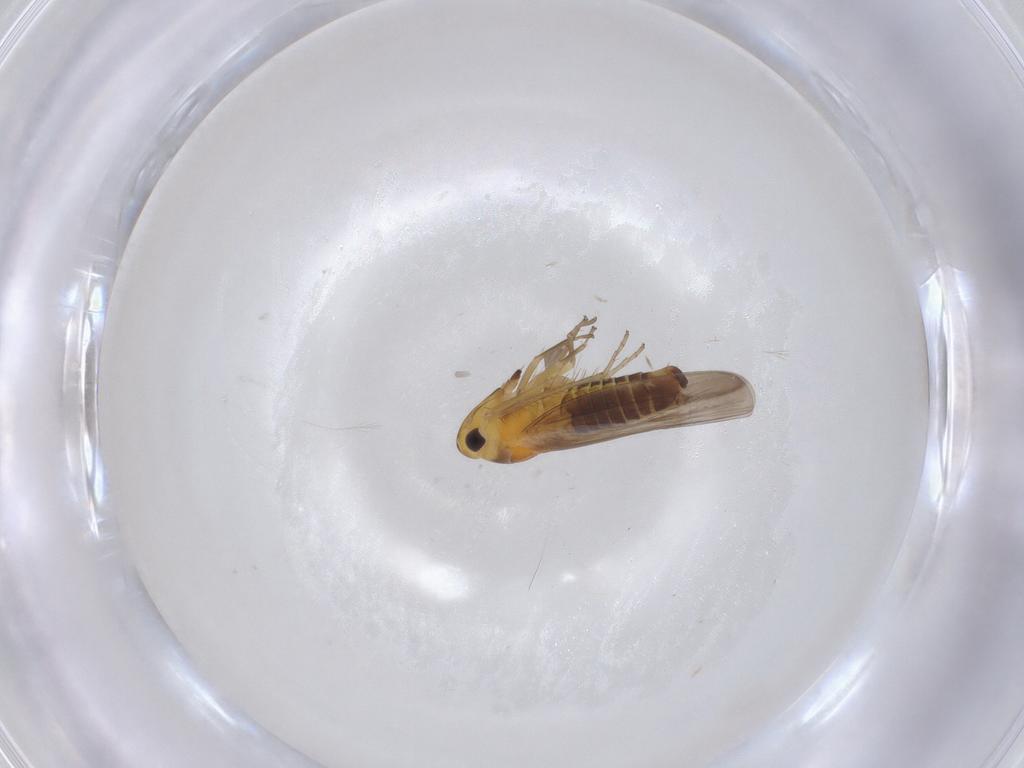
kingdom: Animalia
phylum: Arthropoda
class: Insecta
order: Hemiptera
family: Cicadellidae
